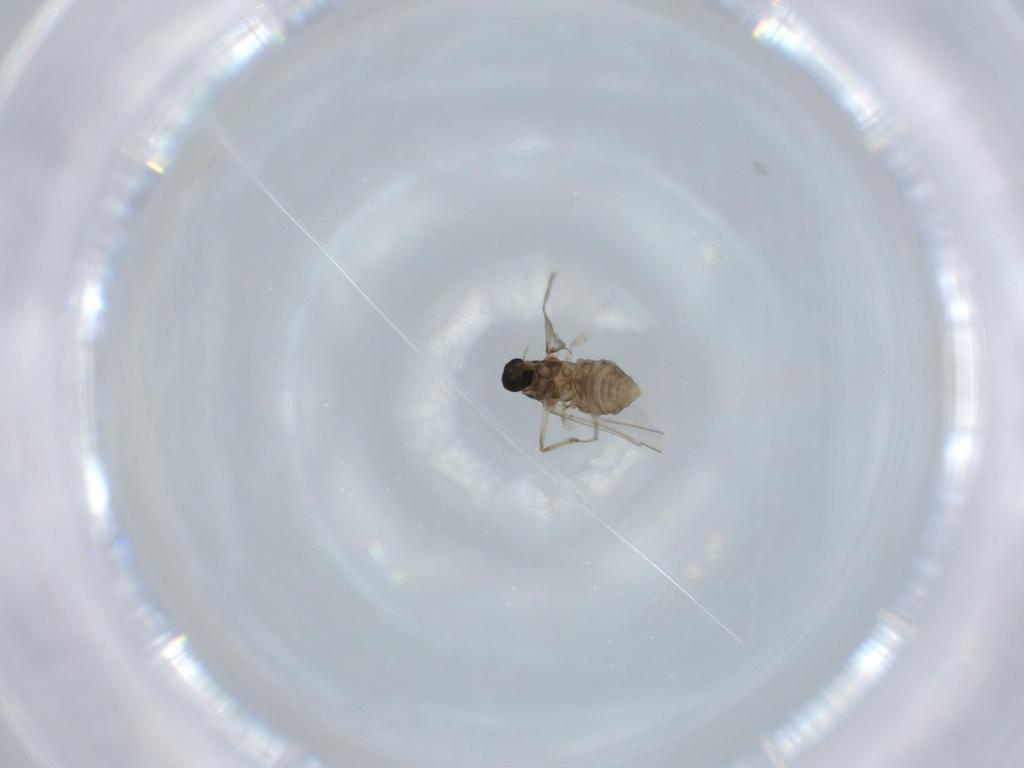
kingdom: Animalia
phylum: Arthropoda
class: Insecta
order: Diptera
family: Cecidomyiidae
